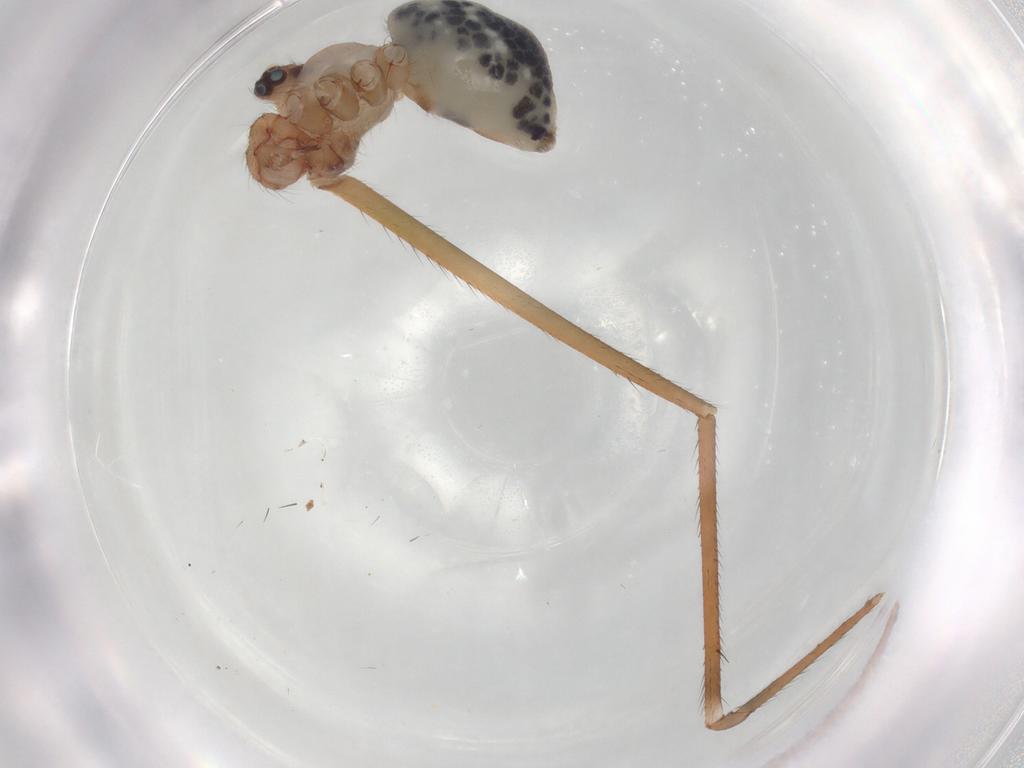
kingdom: Animalia
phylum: Arthropoda
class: Arachnida
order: Araneae
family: Pholcidae
